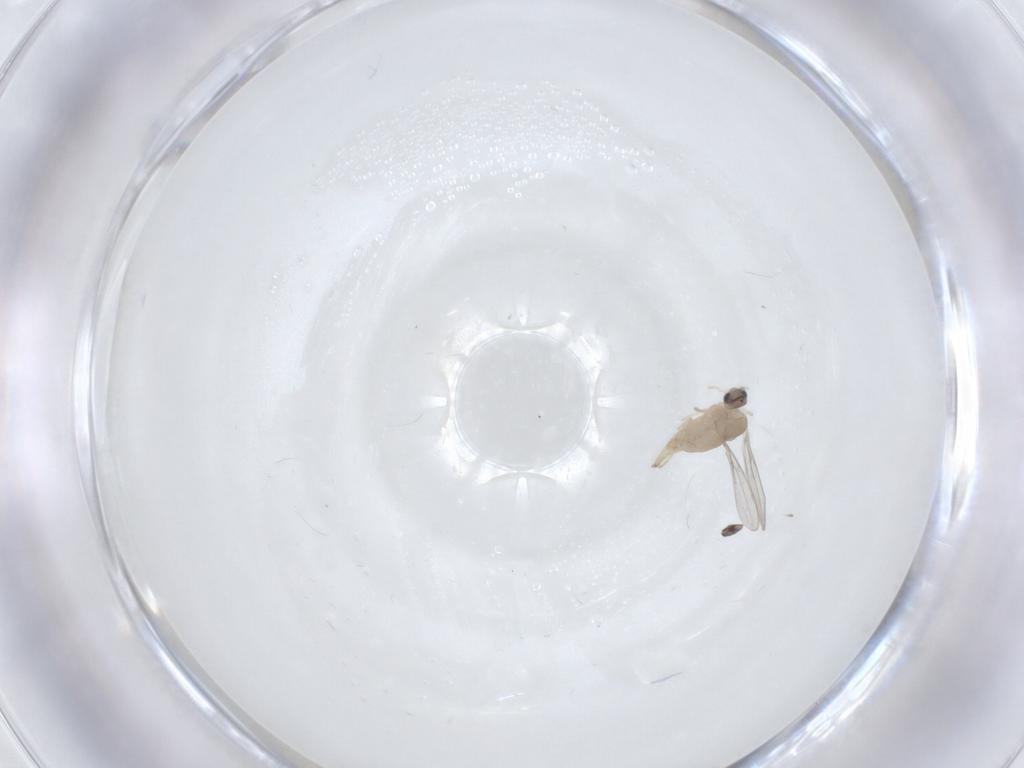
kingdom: Animalia
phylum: Arthropoda
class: Insecta
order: Diptera
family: Cecidomyiidae
